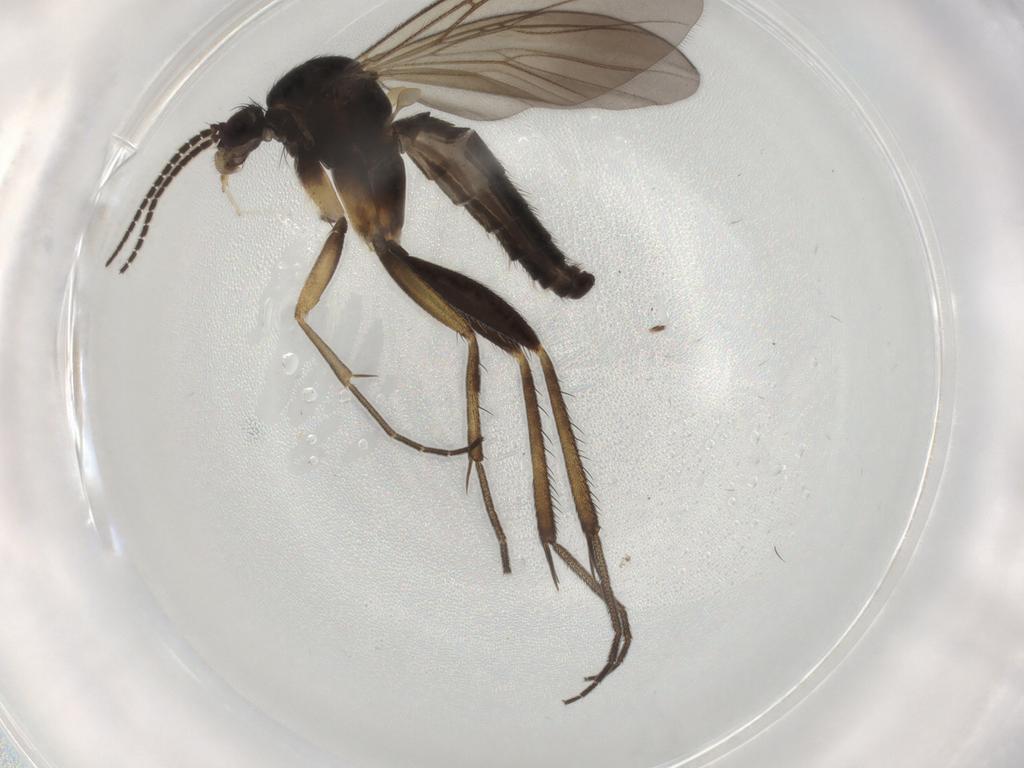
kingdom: Animalia
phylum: Arthropoda
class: Insecta
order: Diptera
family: Mycetophilidae
